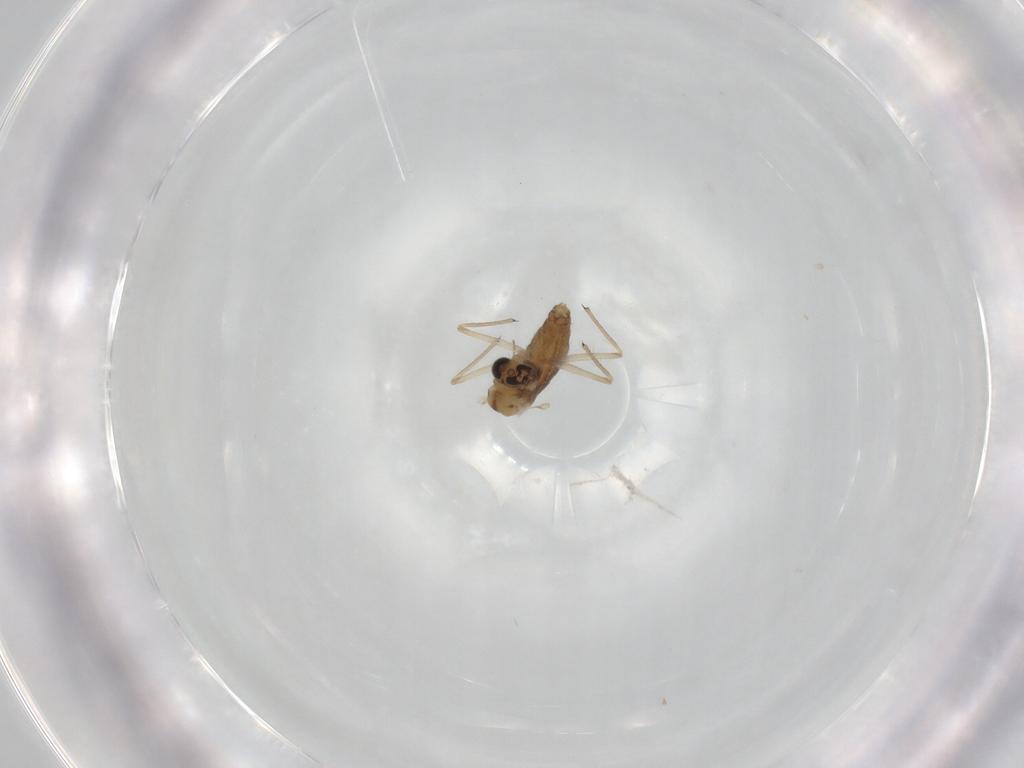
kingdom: Animalia
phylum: Arthropoda
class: Insecta
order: Diptera
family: Chironomidae
